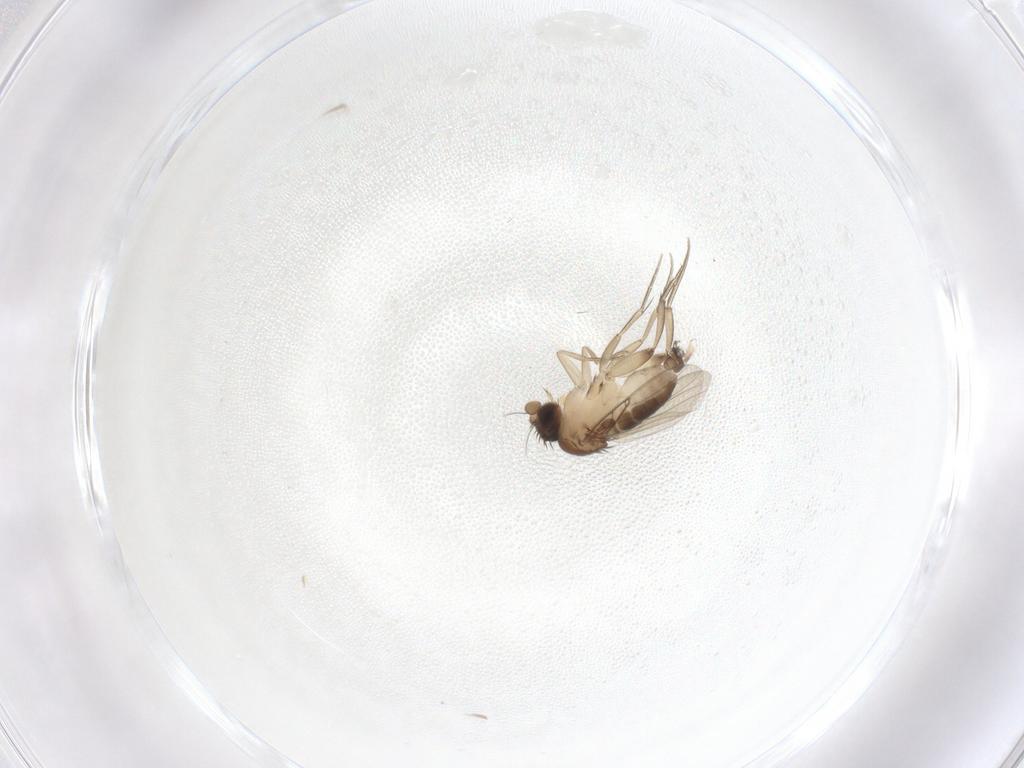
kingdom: Animalia
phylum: Arthropoda
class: Insecta
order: Diptera
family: Phoridae
